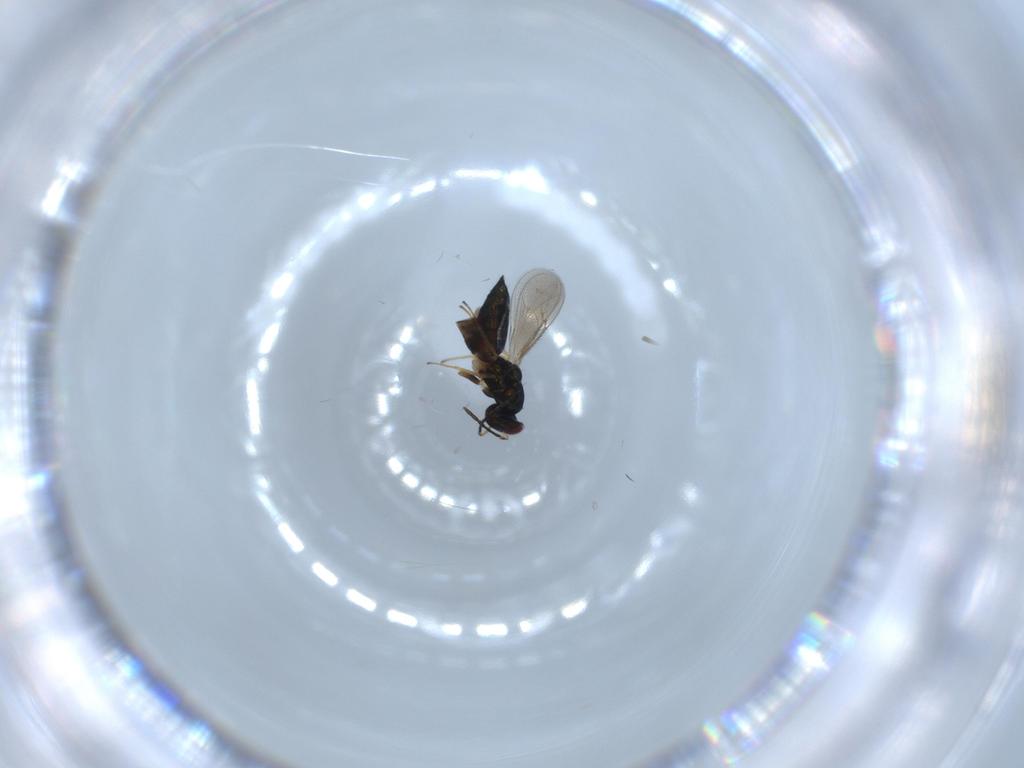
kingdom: Animalia
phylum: Arthropoda
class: Insecta
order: Hymenoptera
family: Eulophidae
